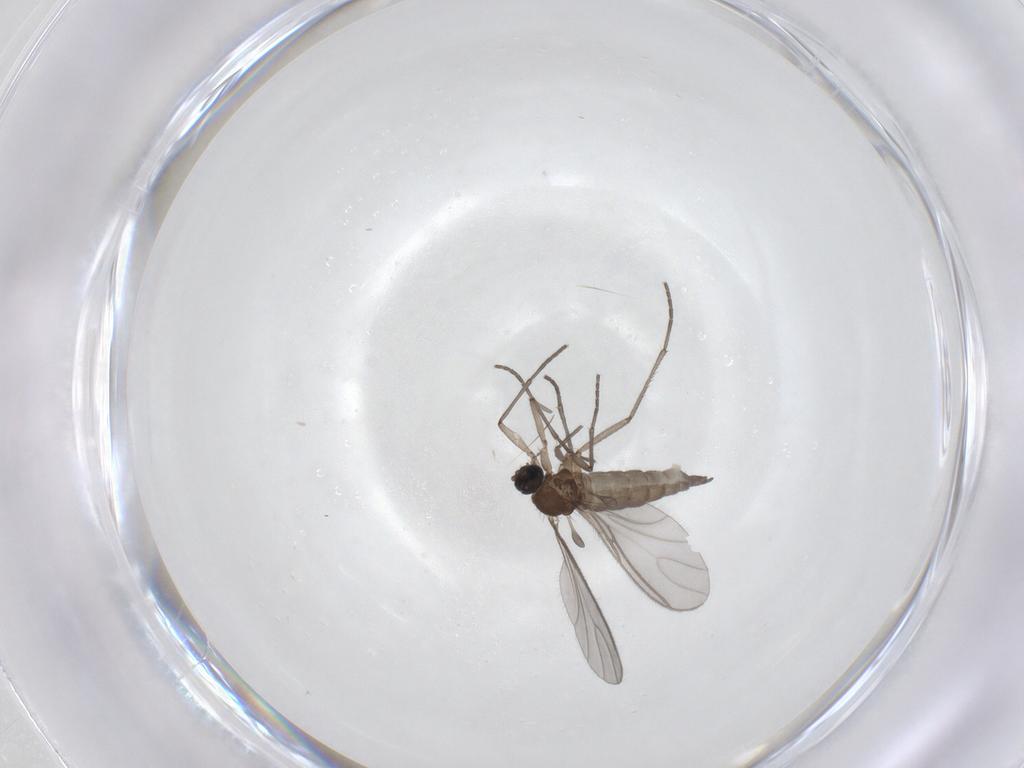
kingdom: Animalia
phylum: Arthropoda
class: Insecta
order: Diptera
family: Sciaridae
